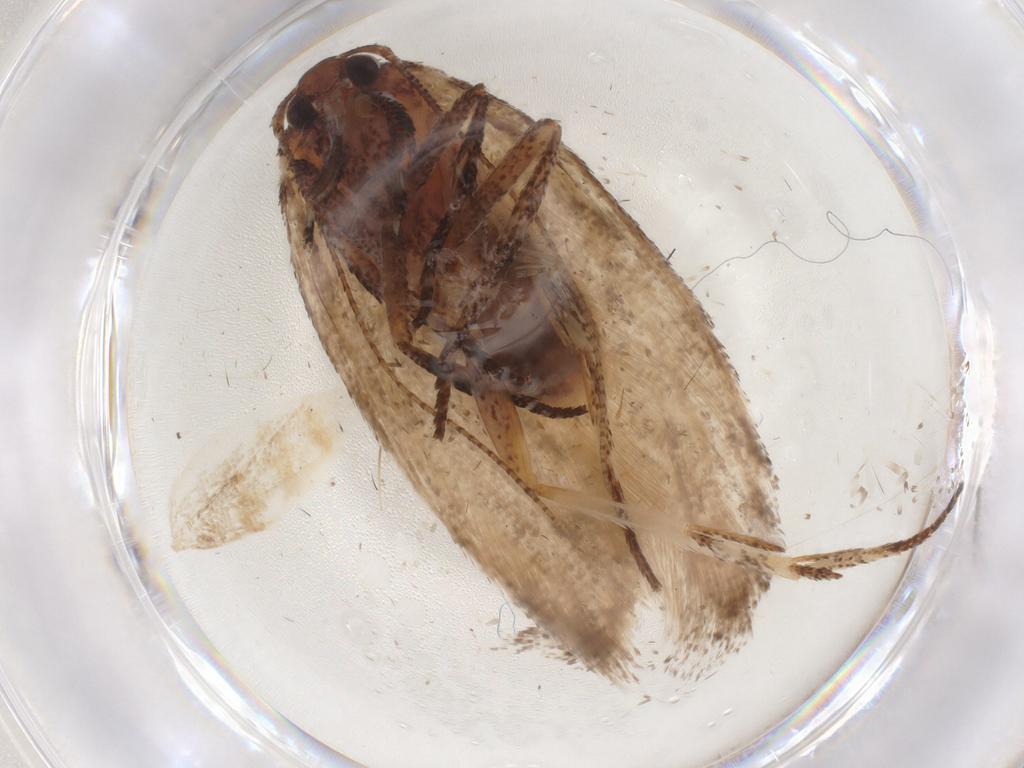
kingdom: Animalia
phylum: Arthropoda
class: Insecta
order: Lepidoptera
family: Cosmopterigidae
